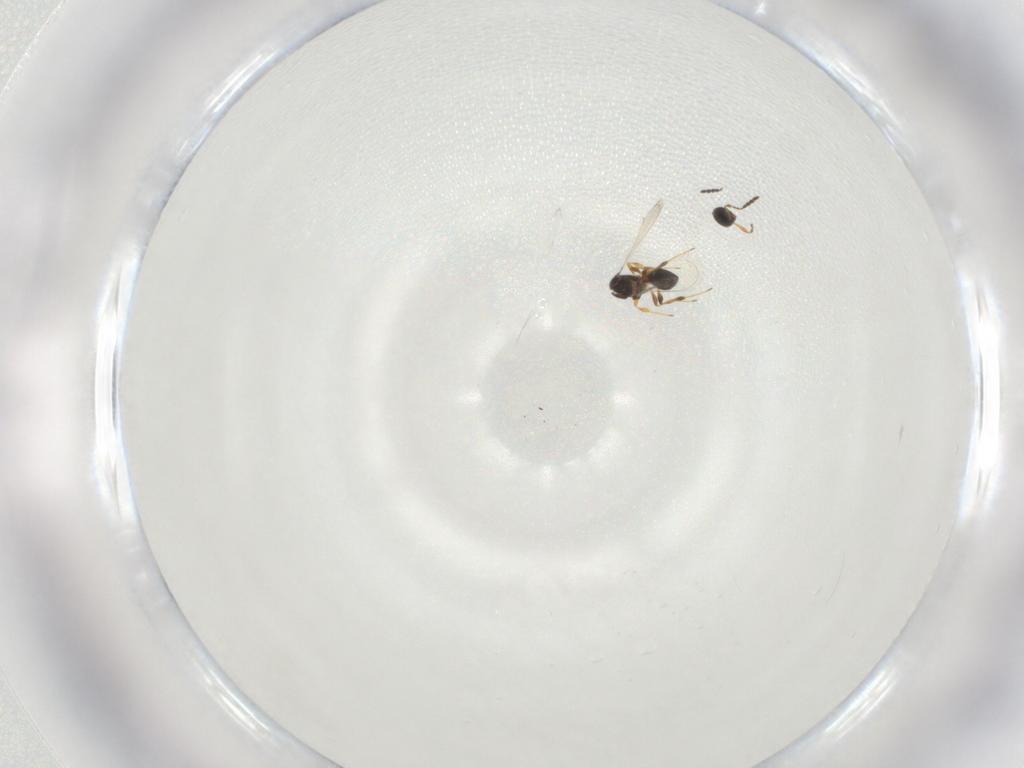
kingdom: Animalia
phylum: Arthropoda
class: Insecta
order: Hymenoptera
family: Platygastridae
